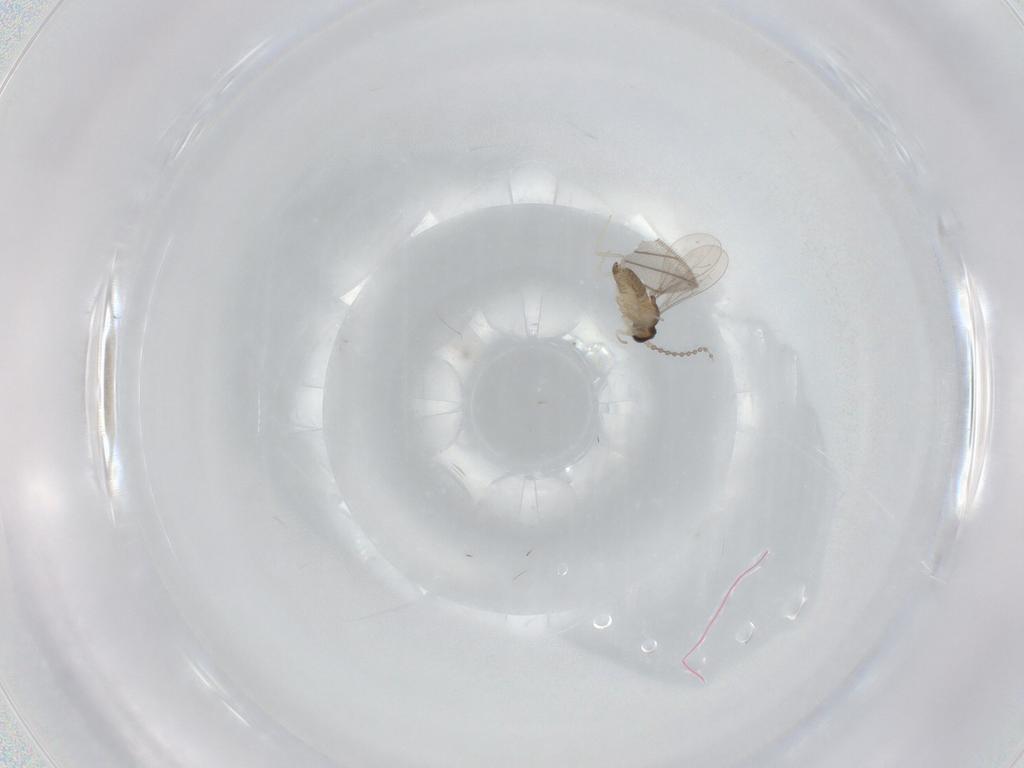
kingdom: Animalia
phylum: Arthropoda
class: Insecta
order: Diptera
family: Cecidomyiidae
